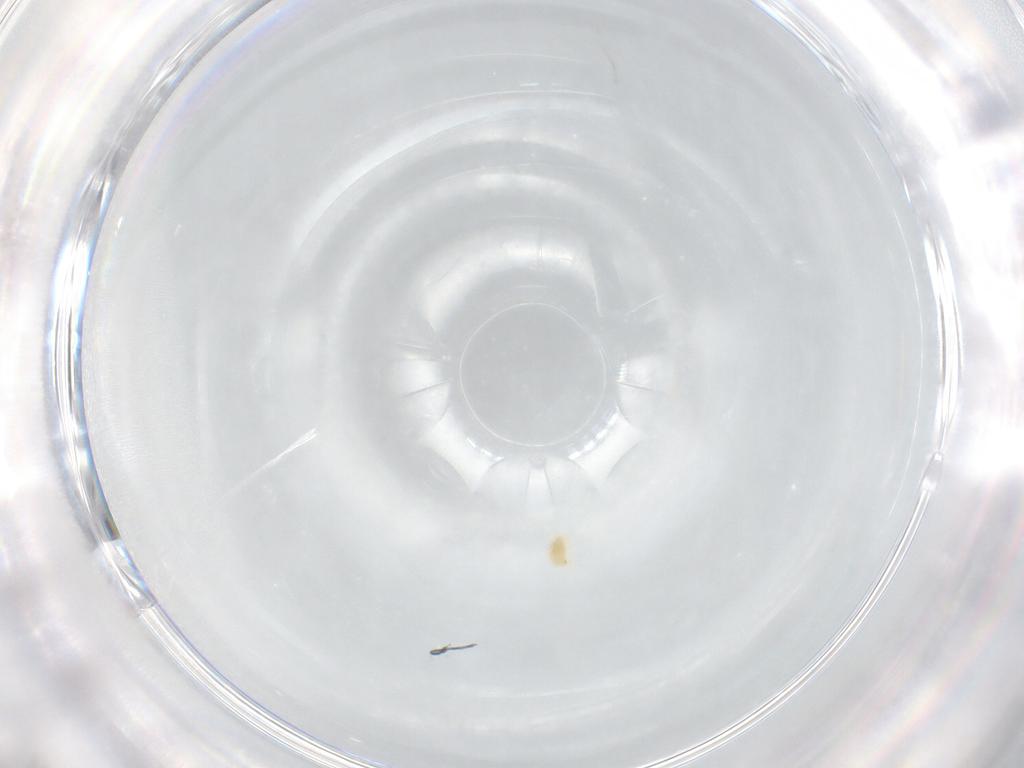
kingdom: Animalia
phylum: Arthropoda
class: Arachnida
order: Trombidiformes
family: Tetranychidae
